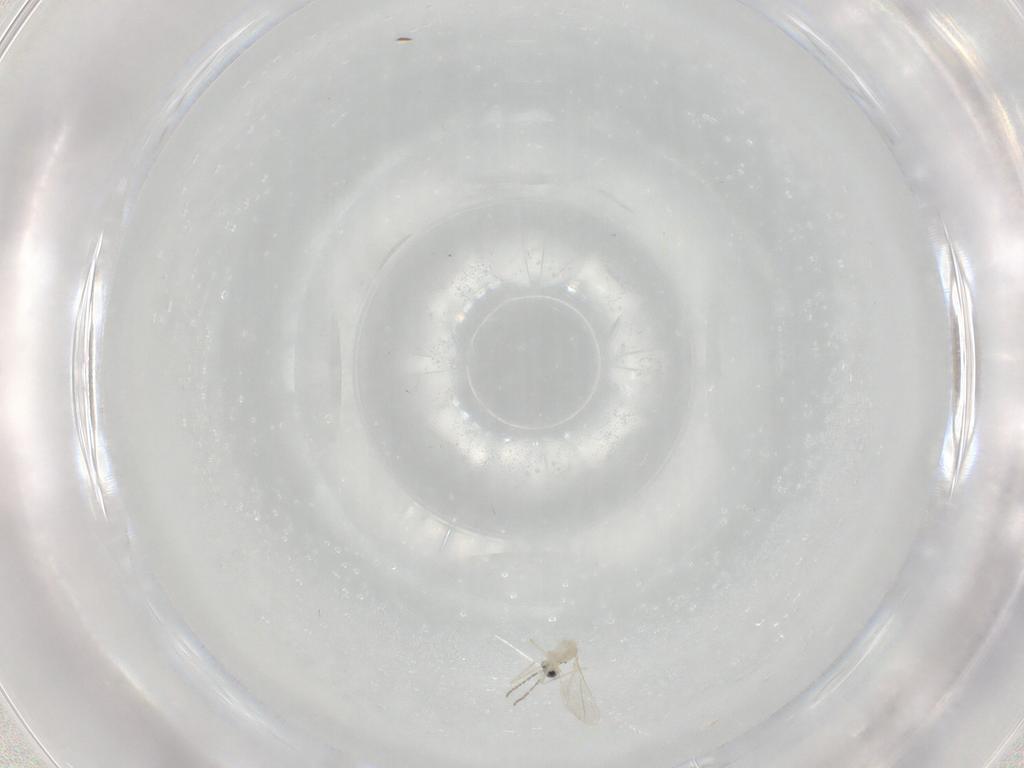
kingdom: Animalia
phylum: Arthropoda
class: Insecta
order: Diptera
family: Cecidomyiidae
